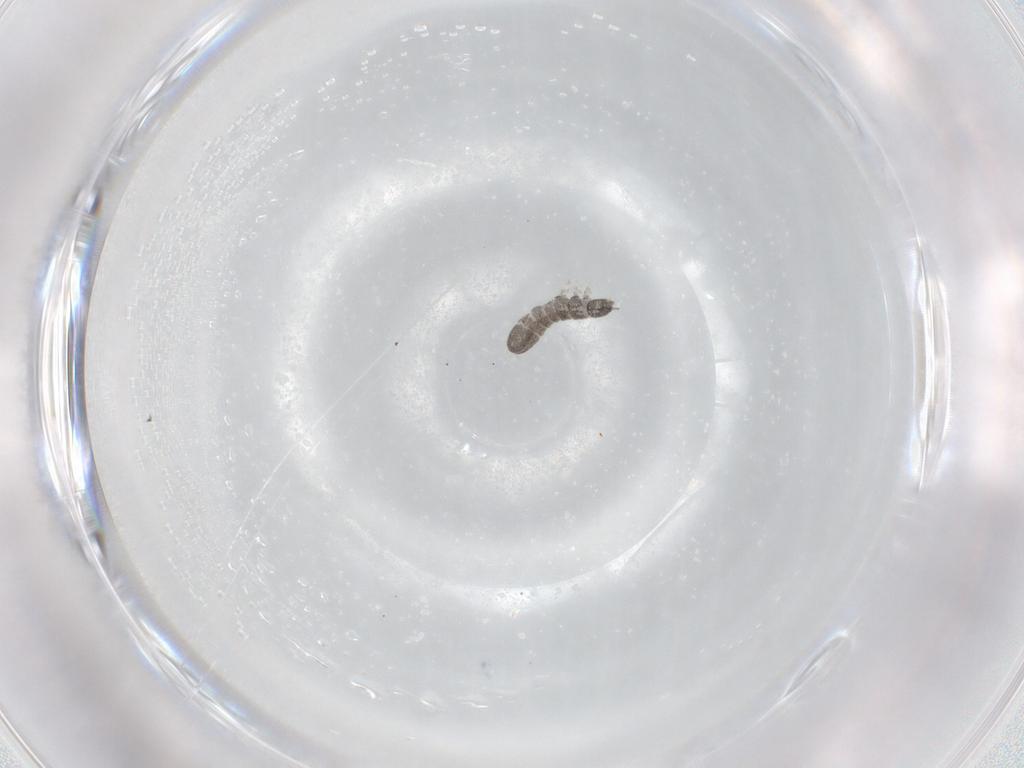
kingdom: Animalia
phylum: Arthropoda
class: Collembola
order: Entomobryomorpha
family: Isotomidae
